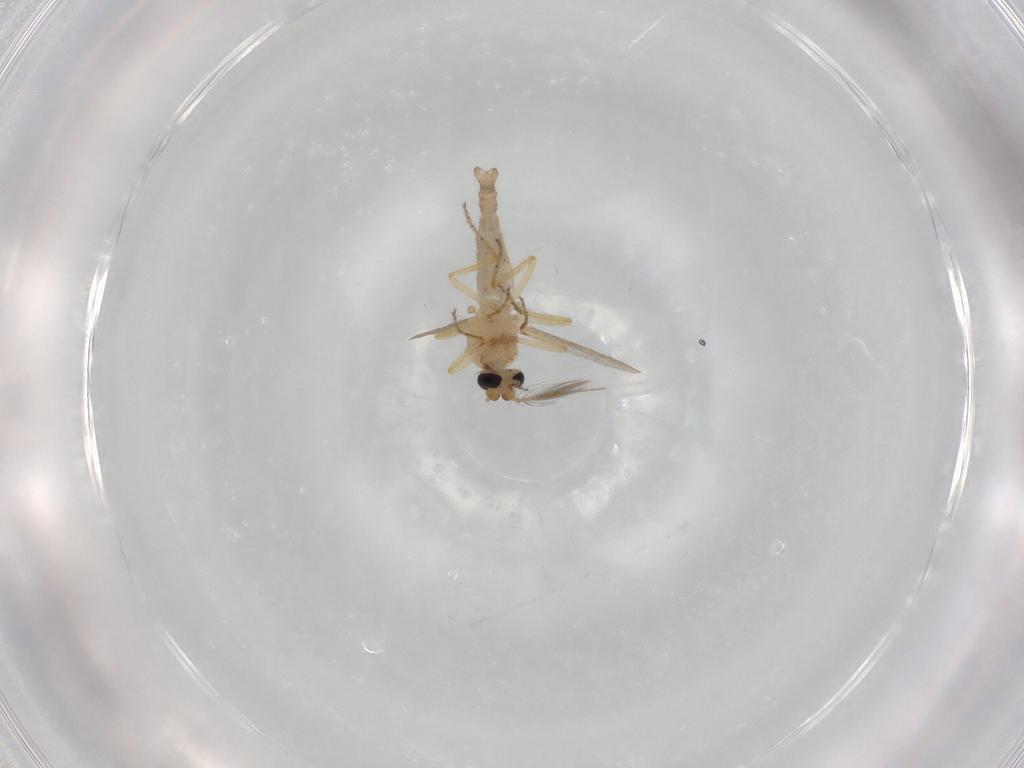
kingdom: Animalia
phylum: Arthropoda
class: Insecta
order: Diptera
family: Ceratopogonidae
